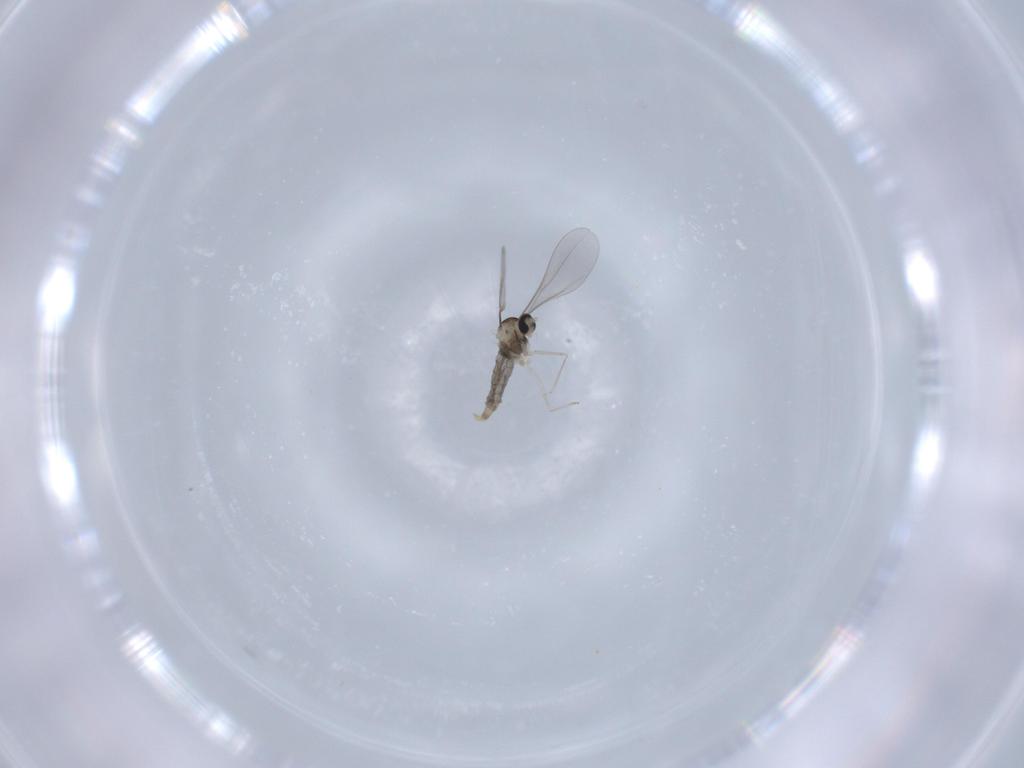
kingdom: Animalia
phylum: Arthropoda
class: Insecta
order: Diptera
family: Sciaridae
